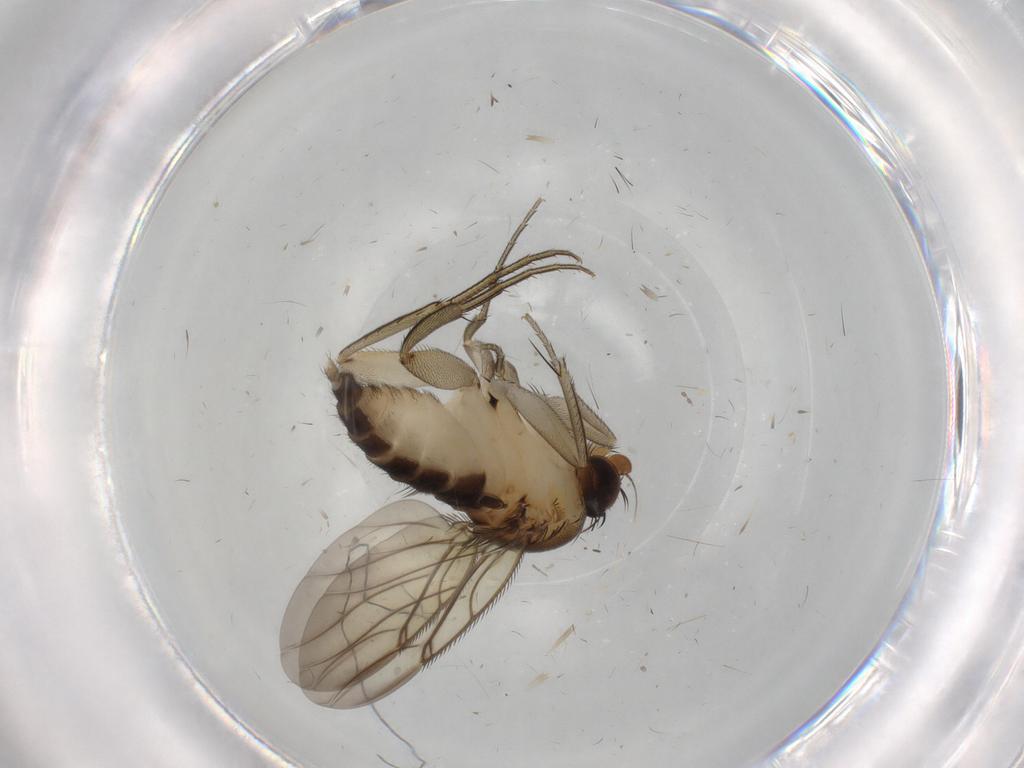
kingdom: Animalia
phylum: Arthropoda
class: Insecta
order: Diptera
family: Phoridae
